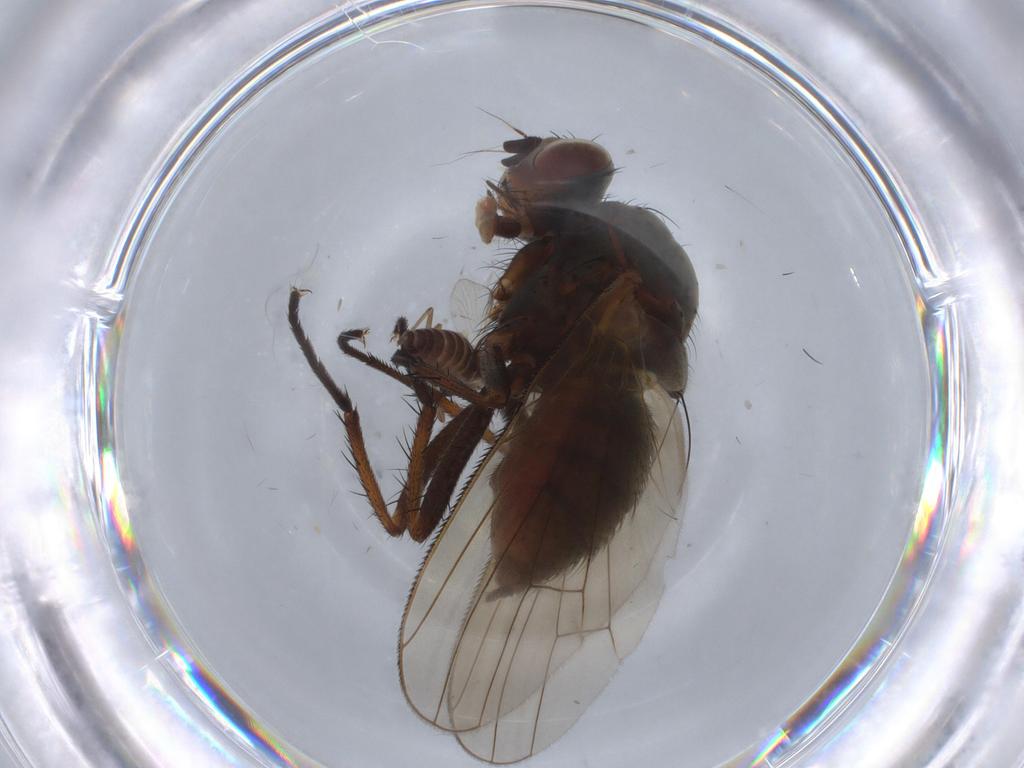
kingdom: Animalia
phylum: Arthropoda
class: Insecta
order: Diptera
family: Anthomyiidae
